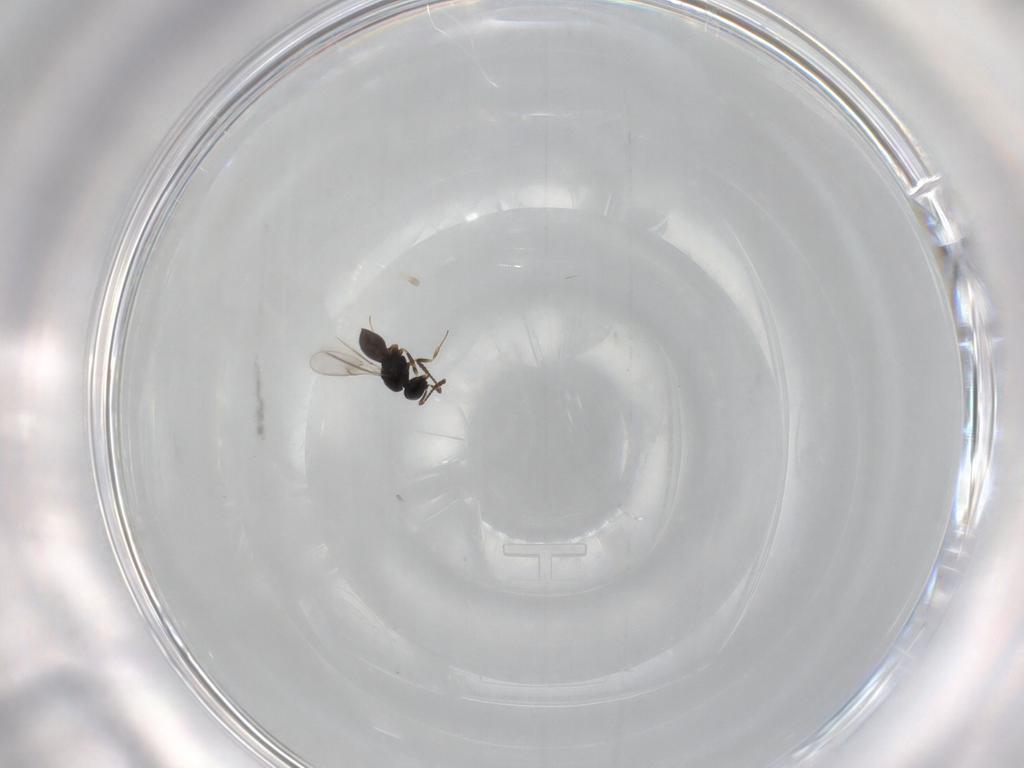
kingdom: Animalia
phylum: Arthropoda
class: Insecta
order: Hymenoptera
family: Scelionidae
